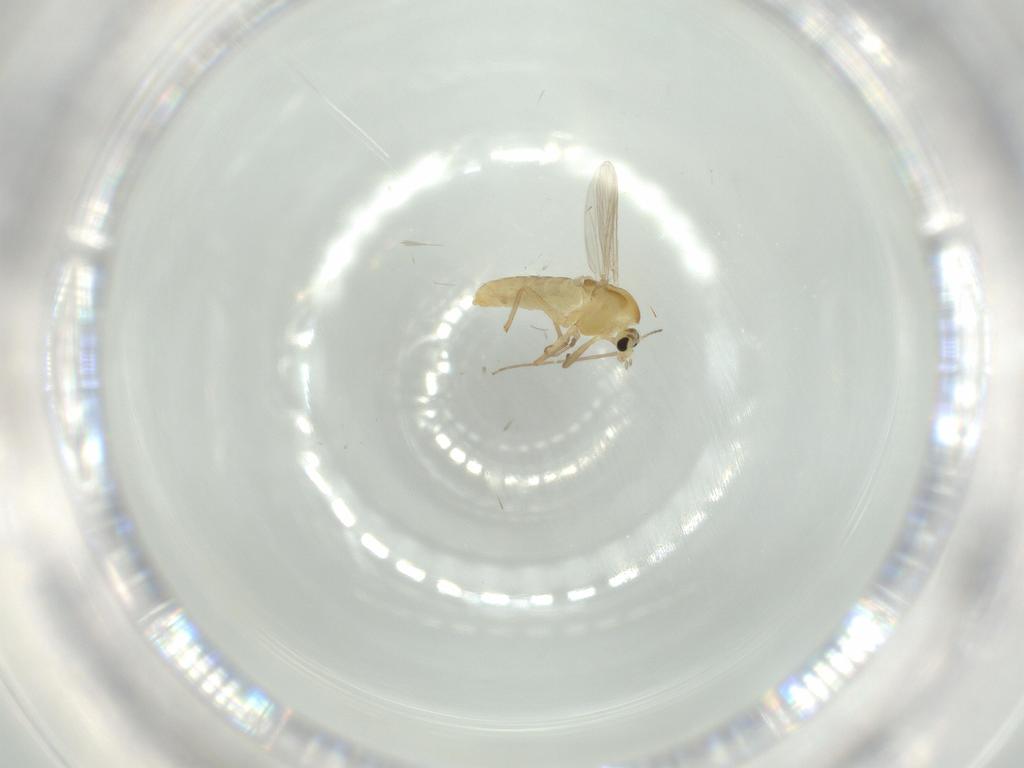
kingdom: Animalia
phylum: Arthropoda
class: Insecta
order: Diptera
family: Chironomidae
